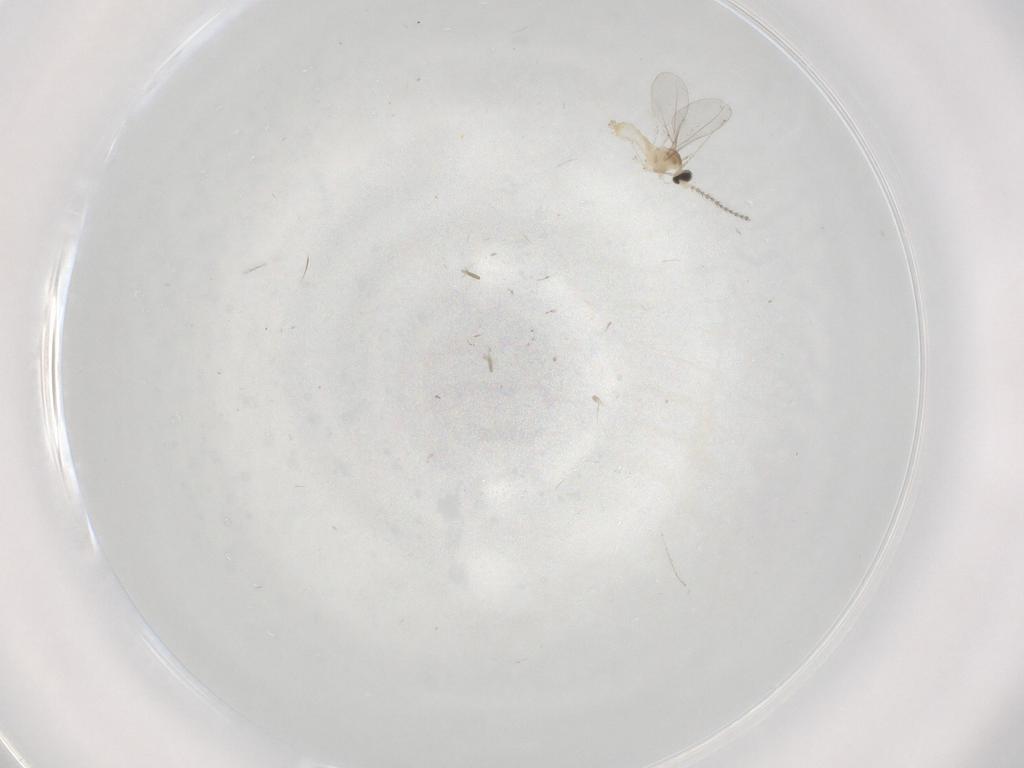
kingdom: Animalia
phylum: Arthropoda
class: Insecta
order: Diptera
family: Cecidomyiidae
